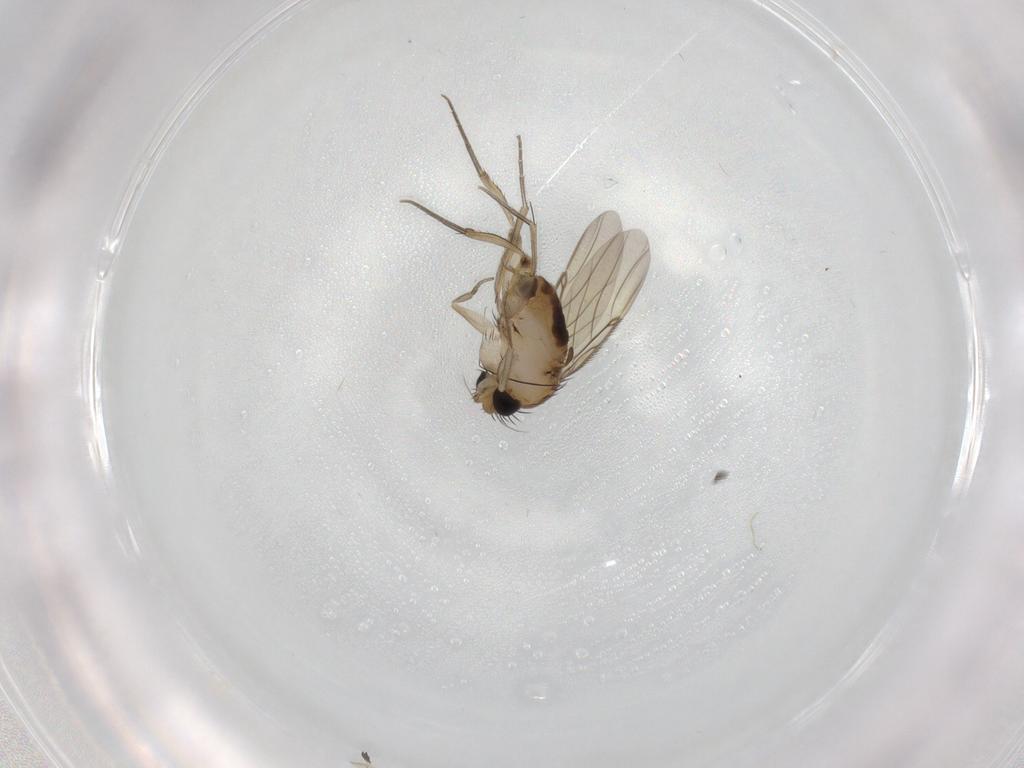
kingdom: Animalia
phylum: Arthropoda
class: Insecta
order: Diptera
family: Phoridae
